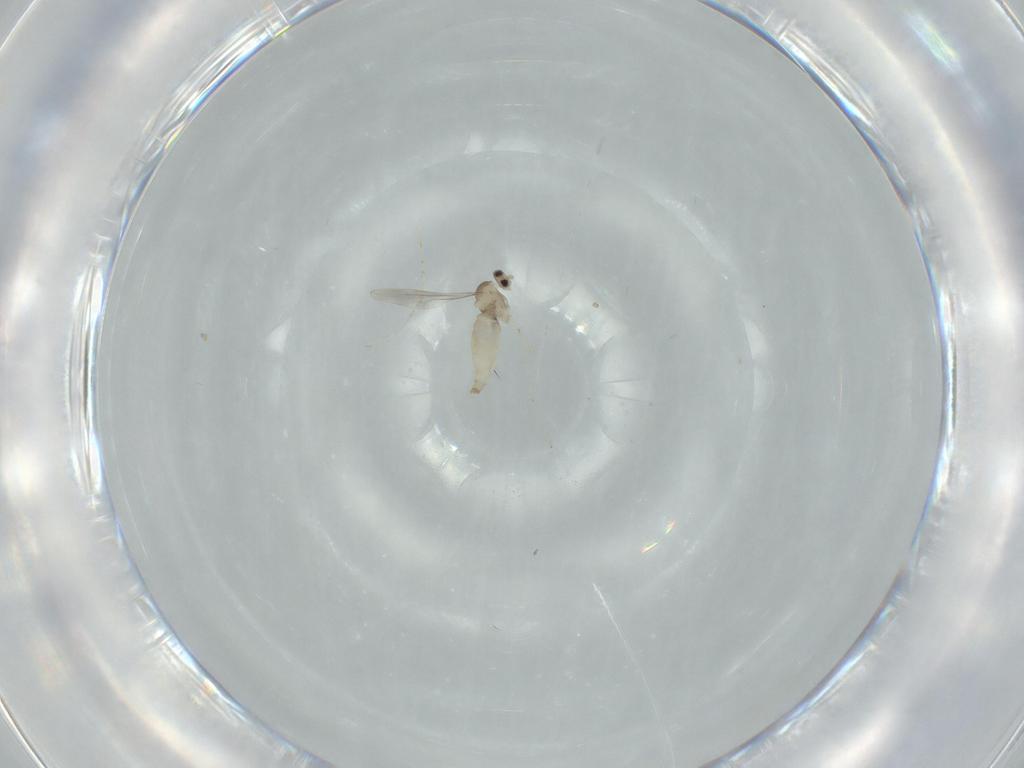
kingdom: Animalia
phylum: Arthropoda
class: Insecta
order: Diptera
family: Cecidomyiidae
